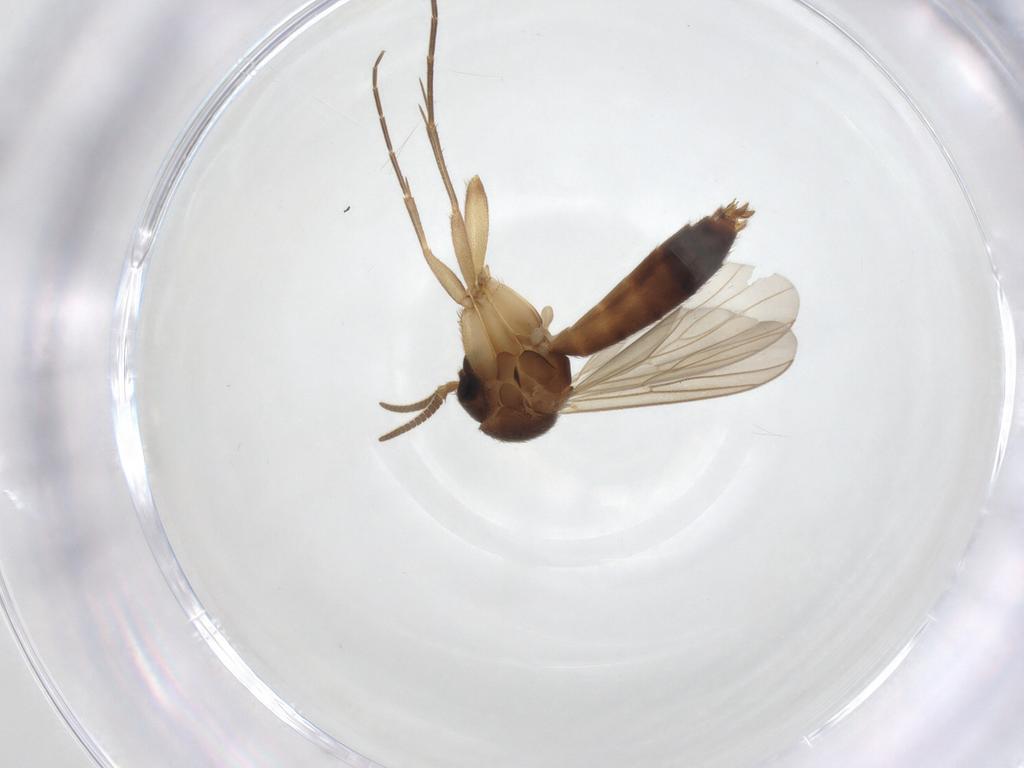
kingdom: Animalia
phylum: Arthropoda
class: Insecta
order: Diptera
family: Mycetophilidae
